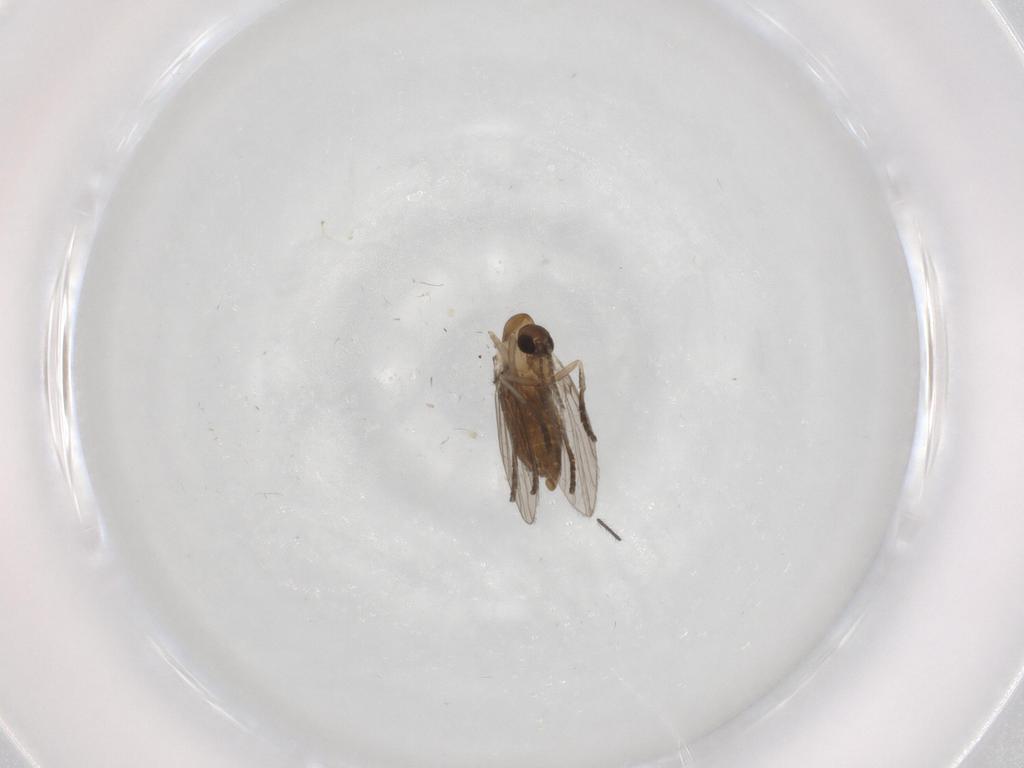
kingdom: Animalia
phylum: Arthropoda
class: Insecta
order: Diptera
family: Psychodidae
